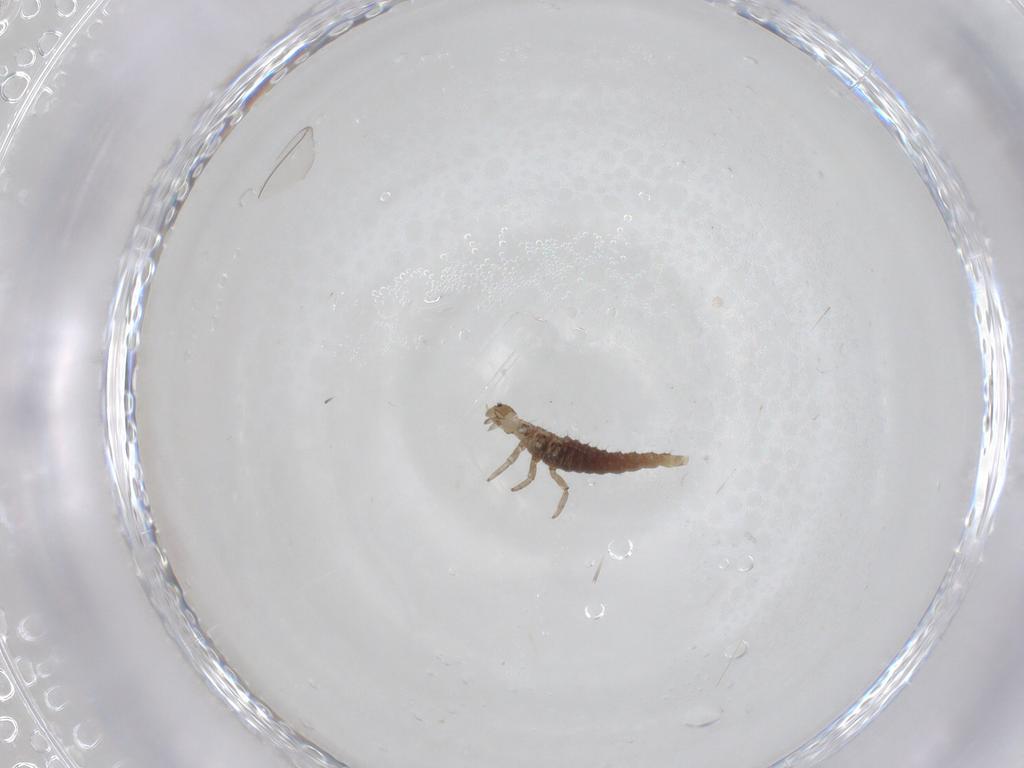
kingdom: Animalia
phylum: Arthropoda
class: Insecta
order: Neuroptera
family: Hemerobiidae
